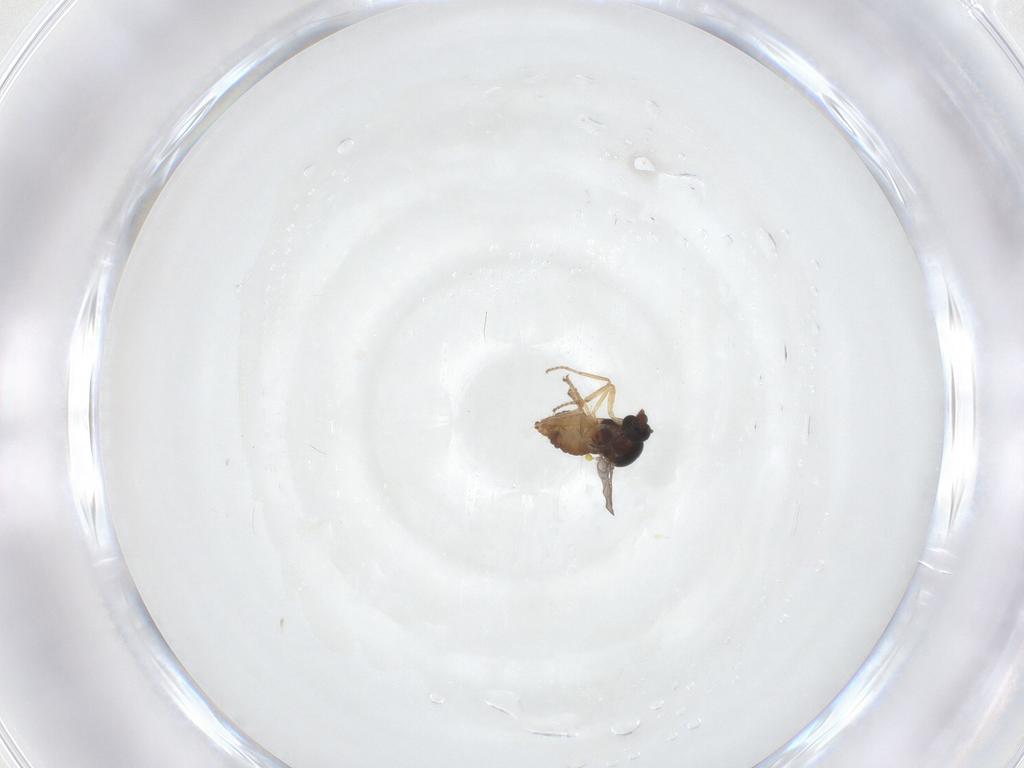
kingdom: Animalia
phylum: Arthropoda
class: Insecta
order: Diptera
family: Ceratopogonidae
